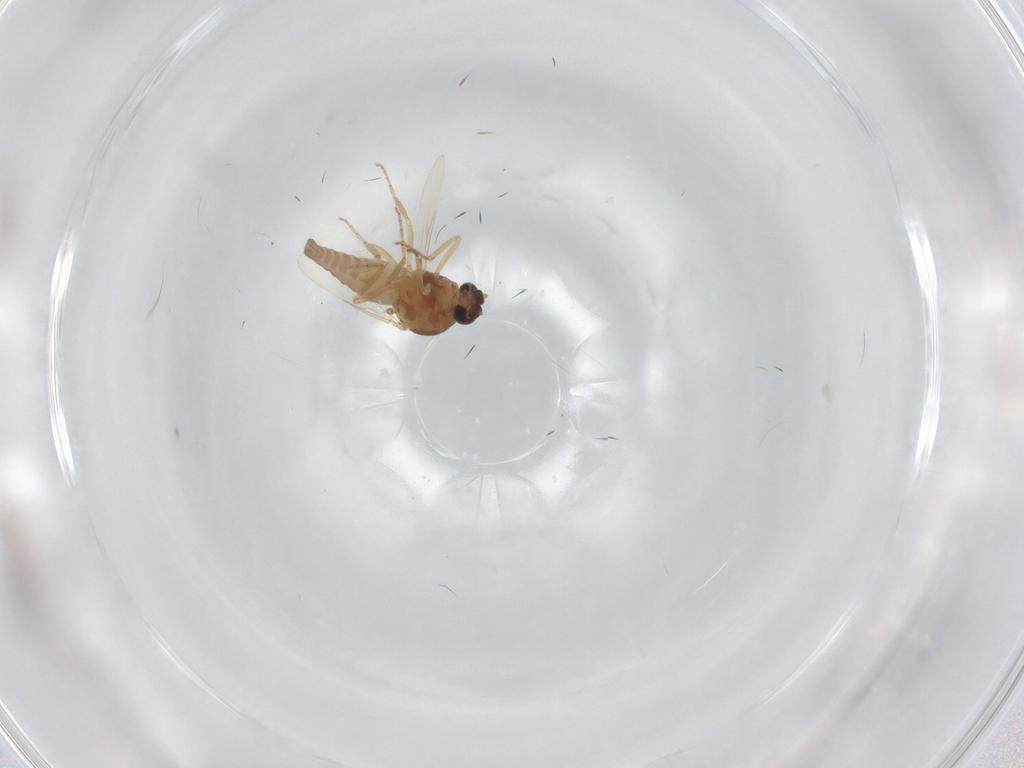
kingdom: Animalia
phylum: Arthropoda
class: Insecta
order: Diptera
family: Ceratopogonidae
